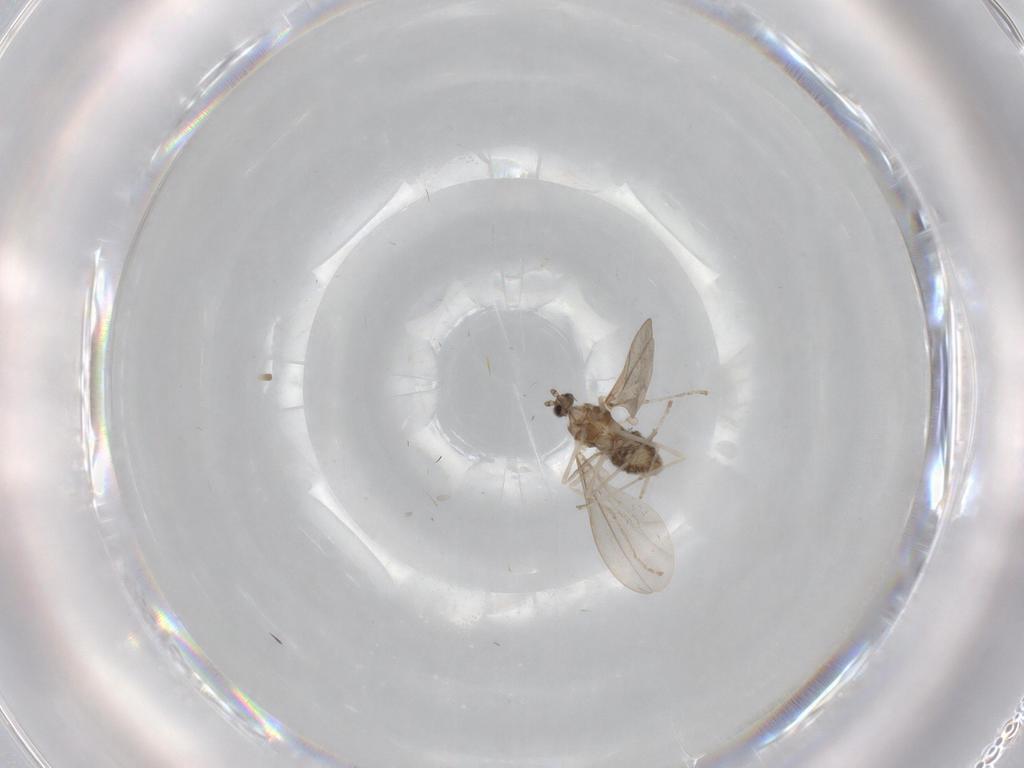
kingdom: Animalia
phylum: Arthropoda
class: Insecta
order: Diptera
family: Cecidomyiidae
